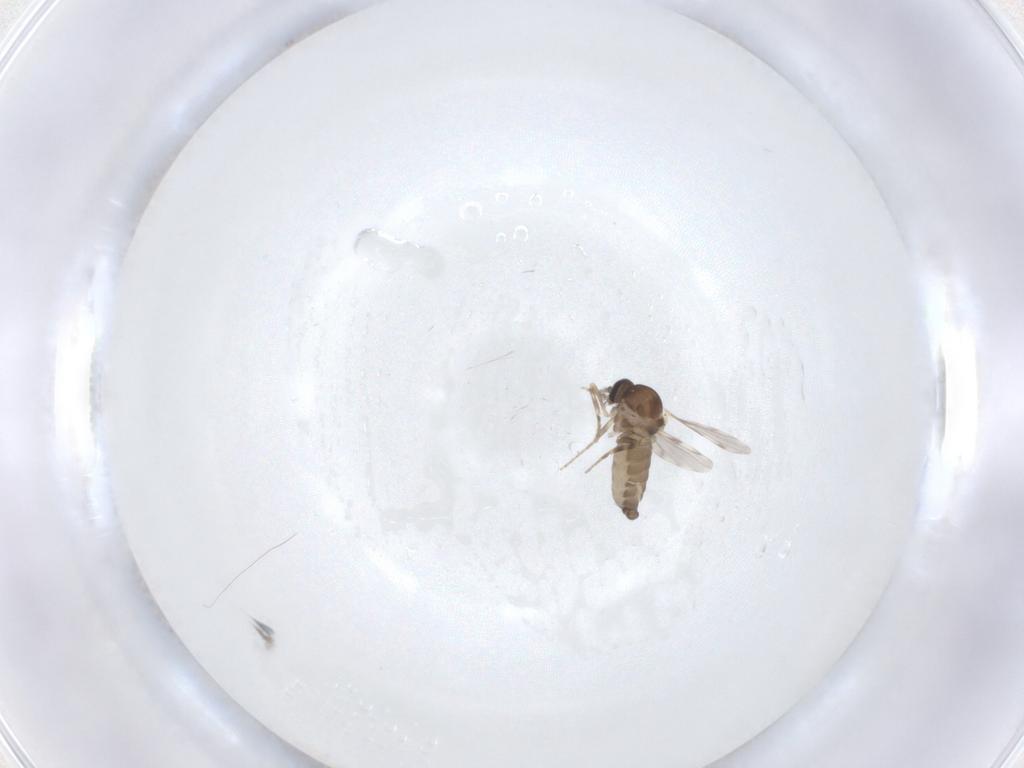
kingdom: Animalia
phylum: Arthropoda
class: Insecta
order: Diptera
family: Ceratopogonidae
